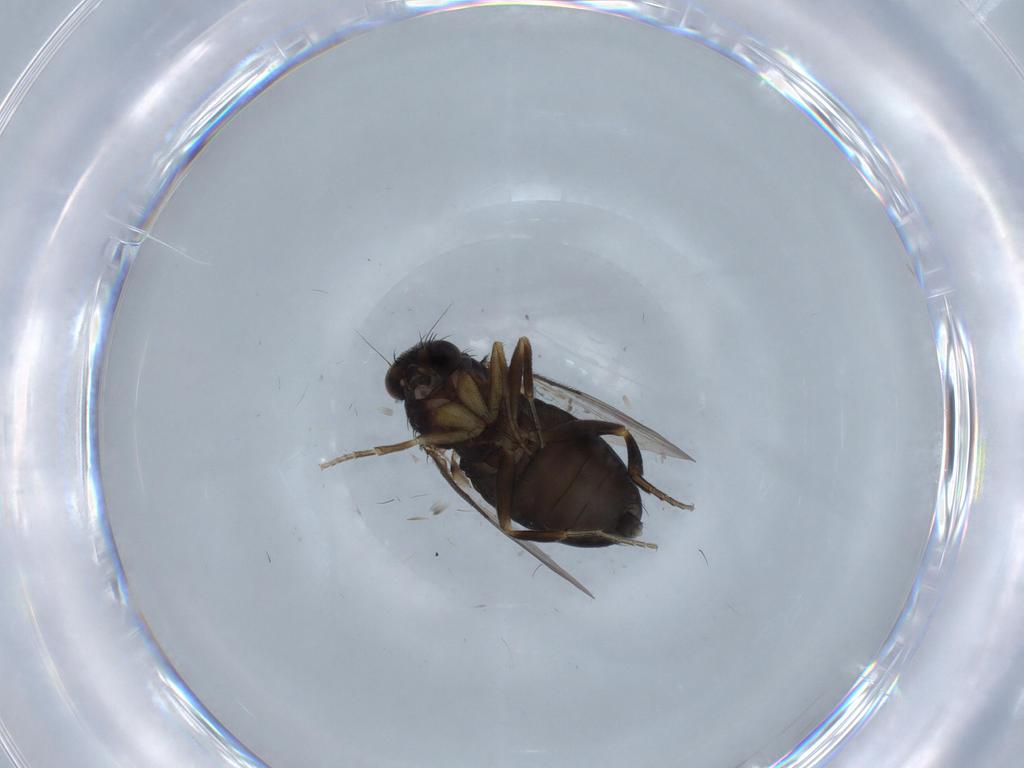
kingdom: Animalia
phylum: Arthropoda
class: Insecta
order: Diptera
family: Phoridae
